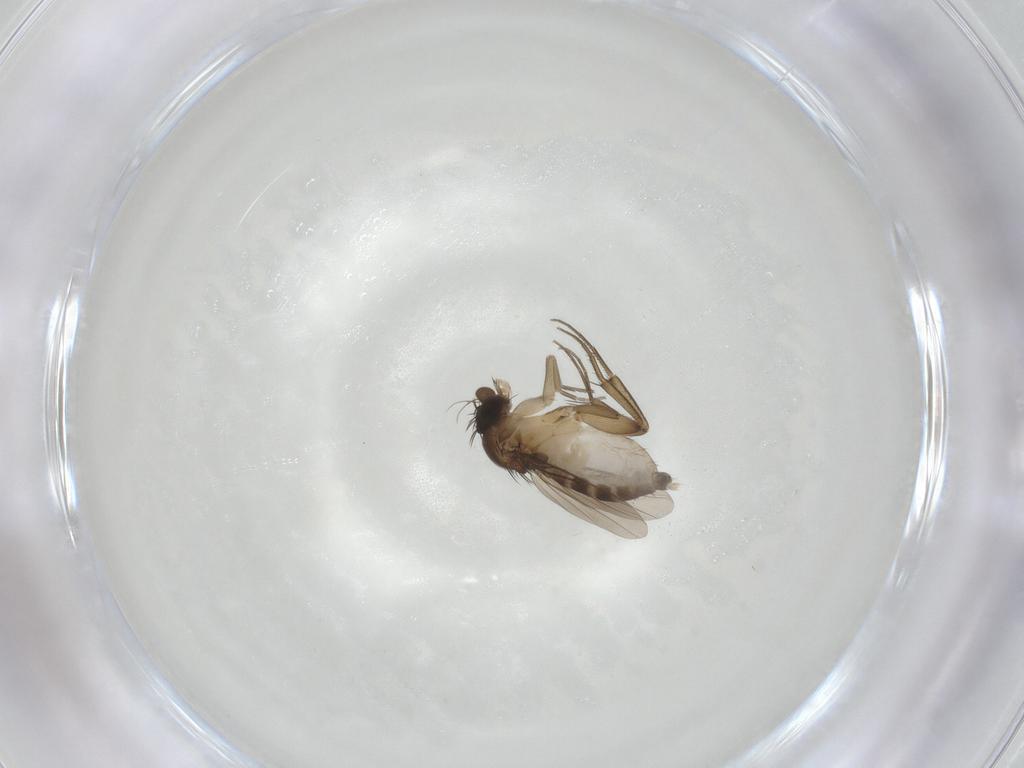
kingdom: Animalia
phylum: Arthropoda
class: Insecta
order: Diptera
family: Phoridae
